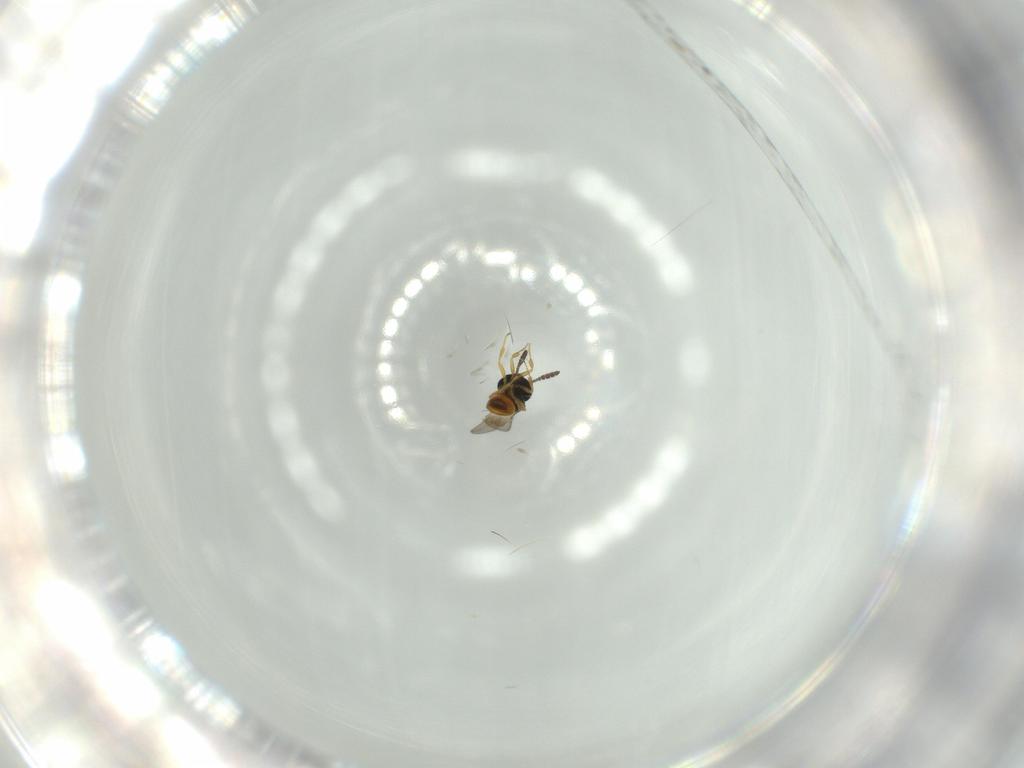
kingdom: Animalia
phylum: Arthropoda
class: Insecta
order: Hymenoptera
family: Scelionidae
